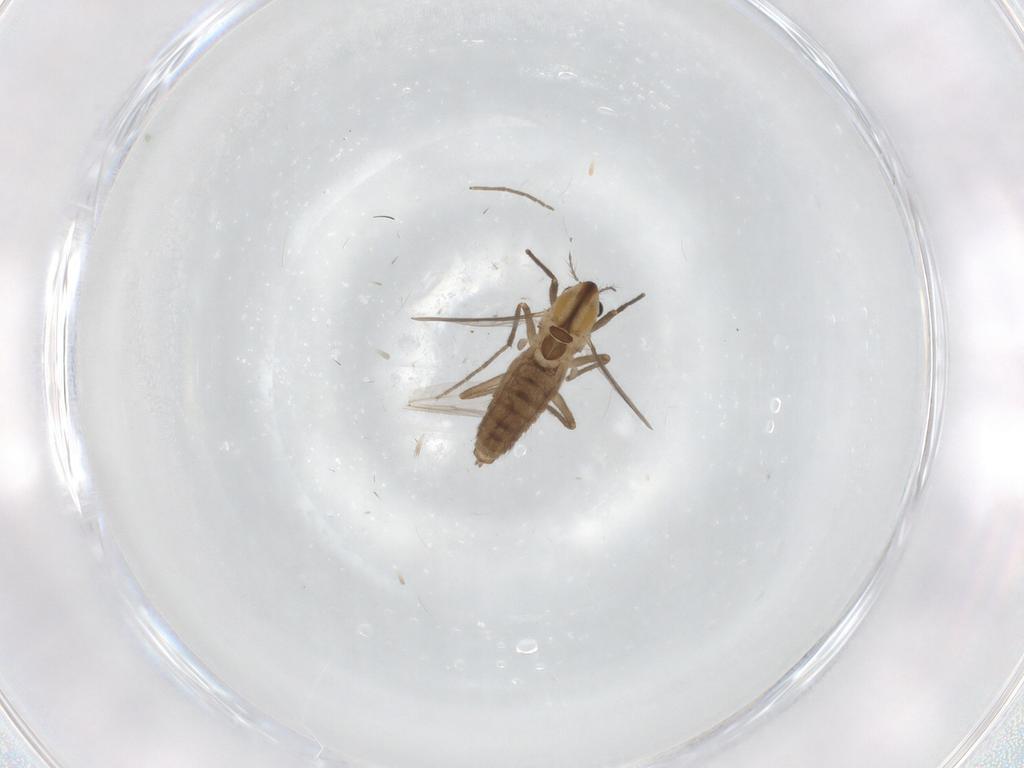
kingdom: Animalia
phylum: Arthropoda
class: Insecta
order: Diptera
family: Chironomidae
